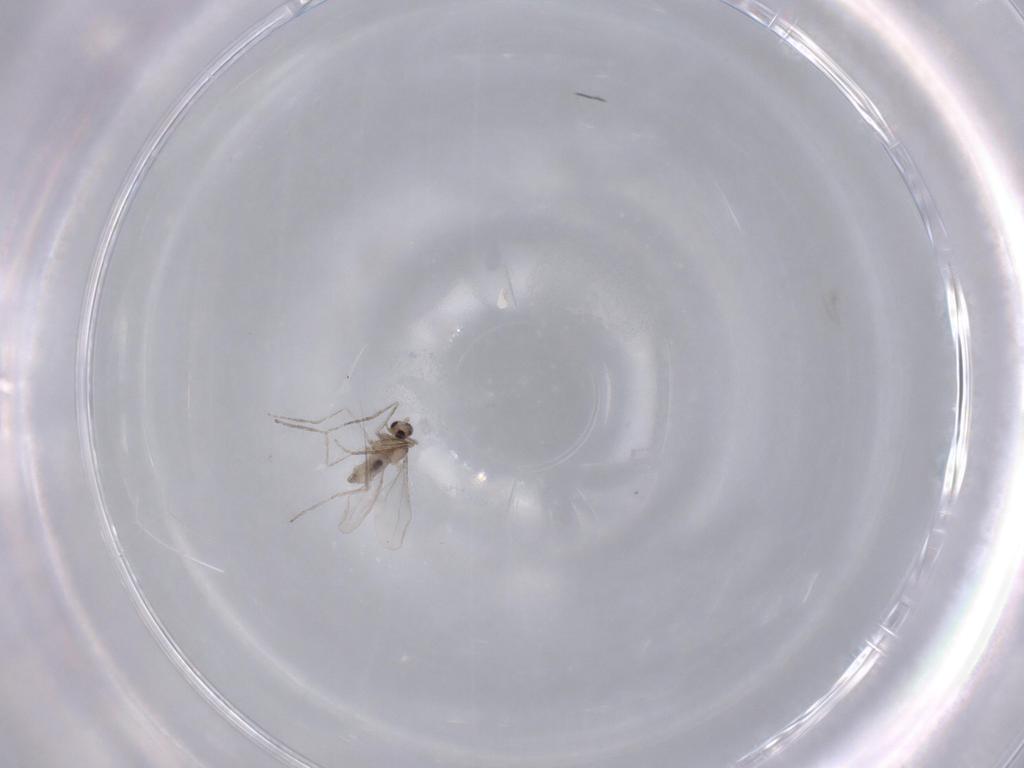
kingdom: Animalia
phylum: Arthropoda
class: Insecta
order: Diptera
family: Cecidomyiidae
